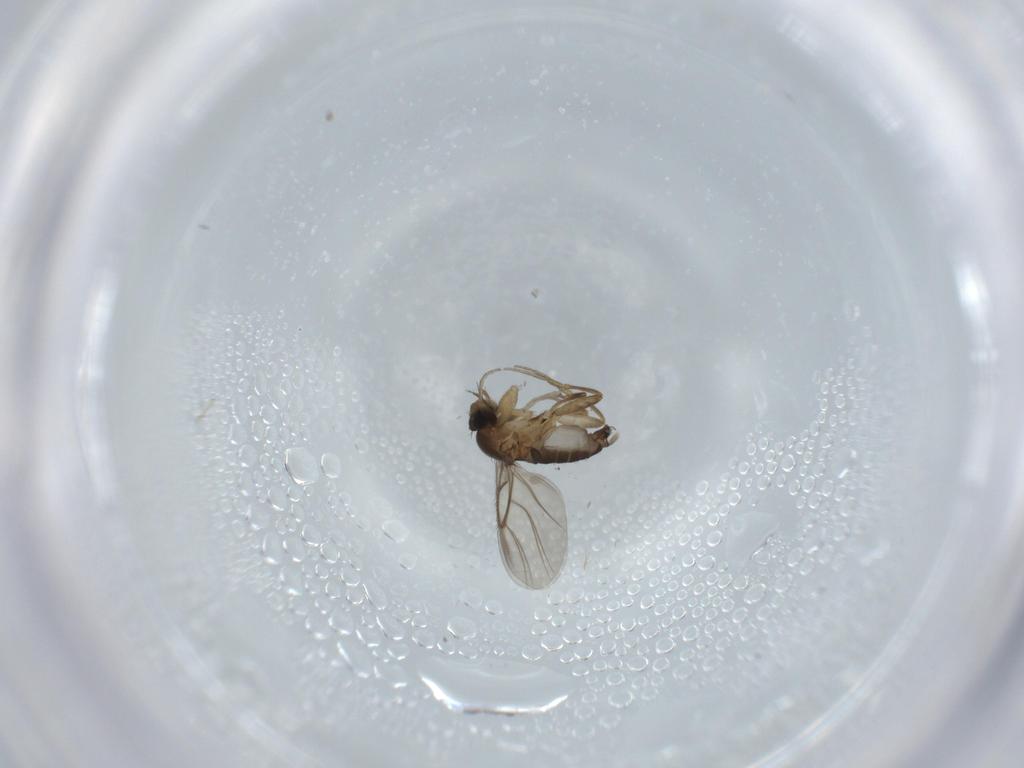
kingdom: Animalia
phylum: Arthropoda
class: Insecta
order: Diptera
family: Phoridae
